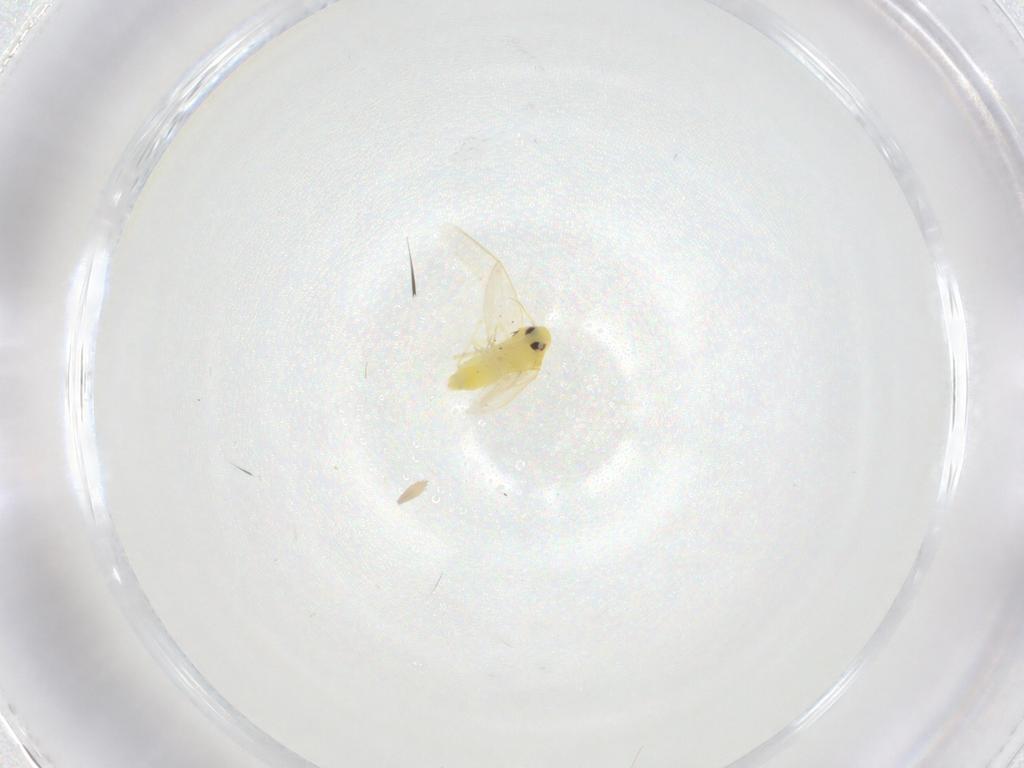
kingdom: Animalia
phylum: Arthropoda
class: Insecta
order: Hemiptera
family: Aleyrodidae
